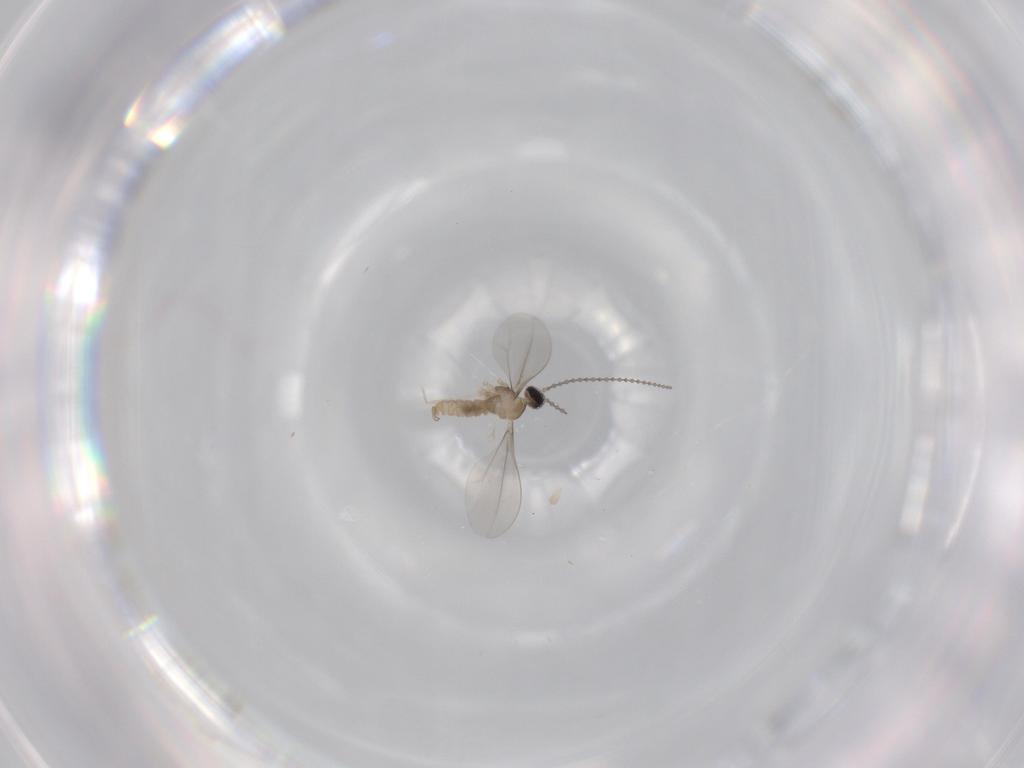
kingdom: Animalia
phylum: Arthropoda
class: Insecta
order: Diptera
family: Cecidomyiidae
